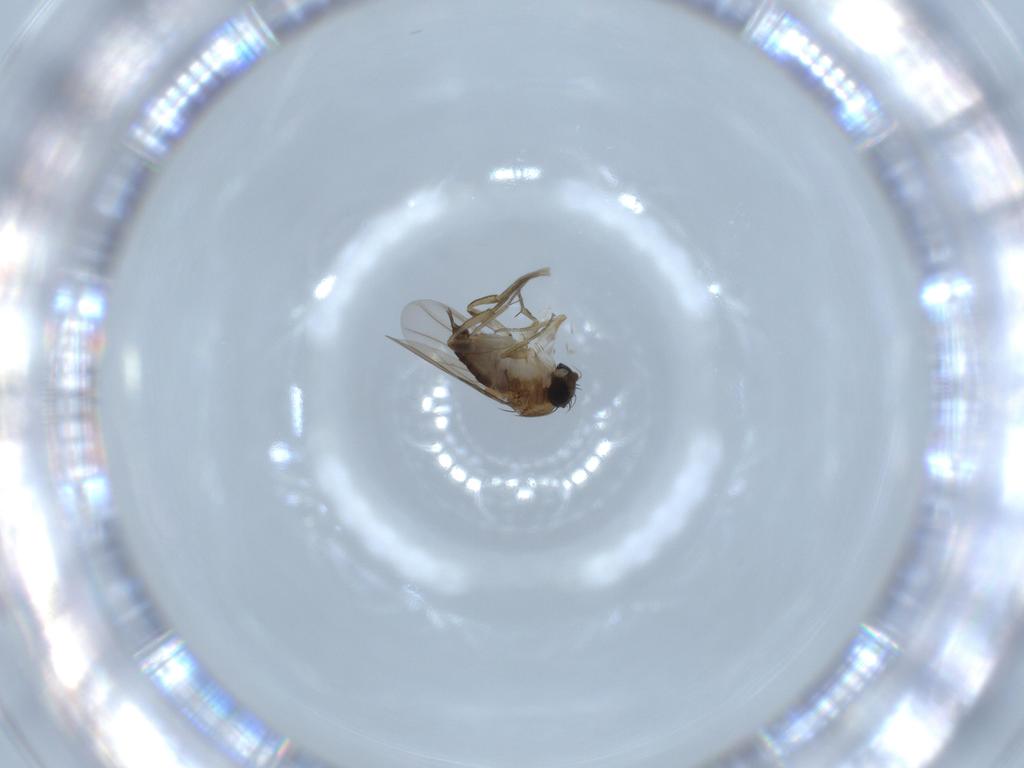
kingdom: Animalia
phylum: Arthropoda
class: Insecta
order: Diptera
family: Phoridae
